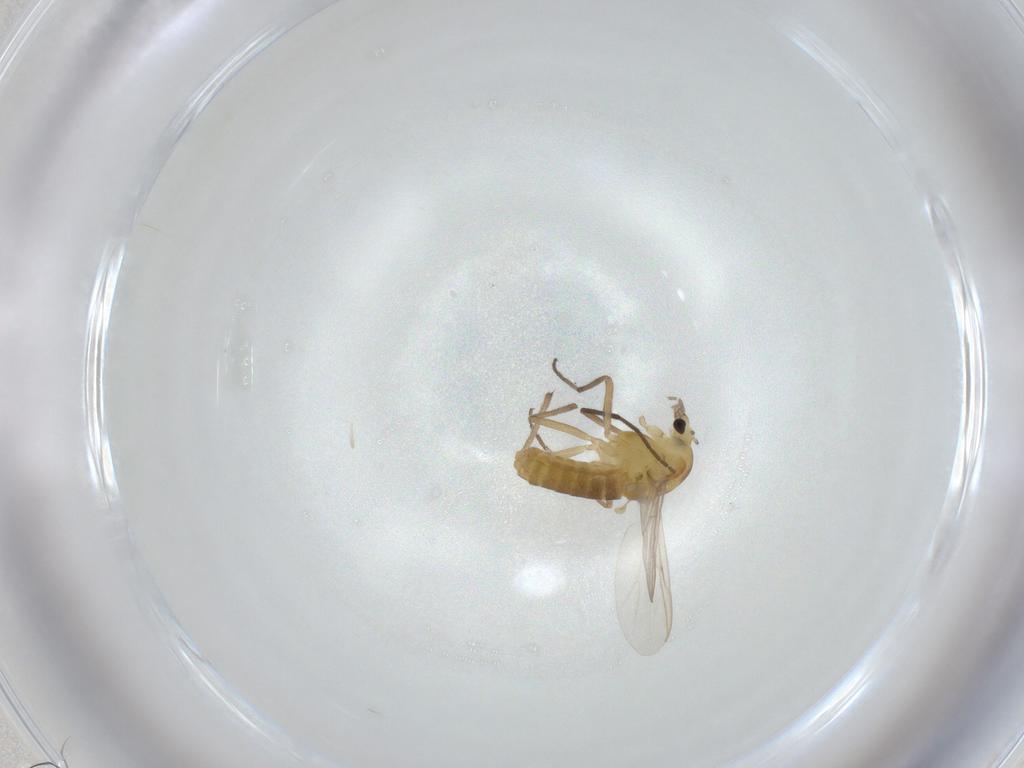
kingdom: Animalia
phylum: Arthropoda
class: Insecta
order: Diptera
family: Chironomidae
